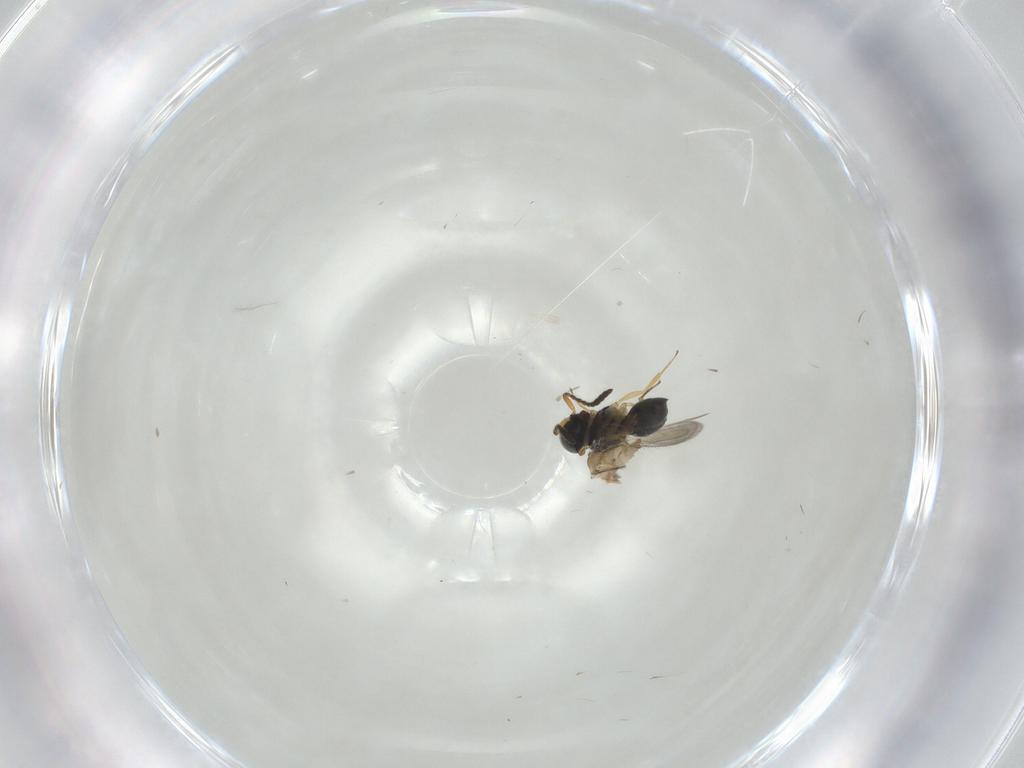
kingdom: Animalia
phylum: Arthropoda
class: Insecta
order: Hymenoptera
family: Scelionidae
